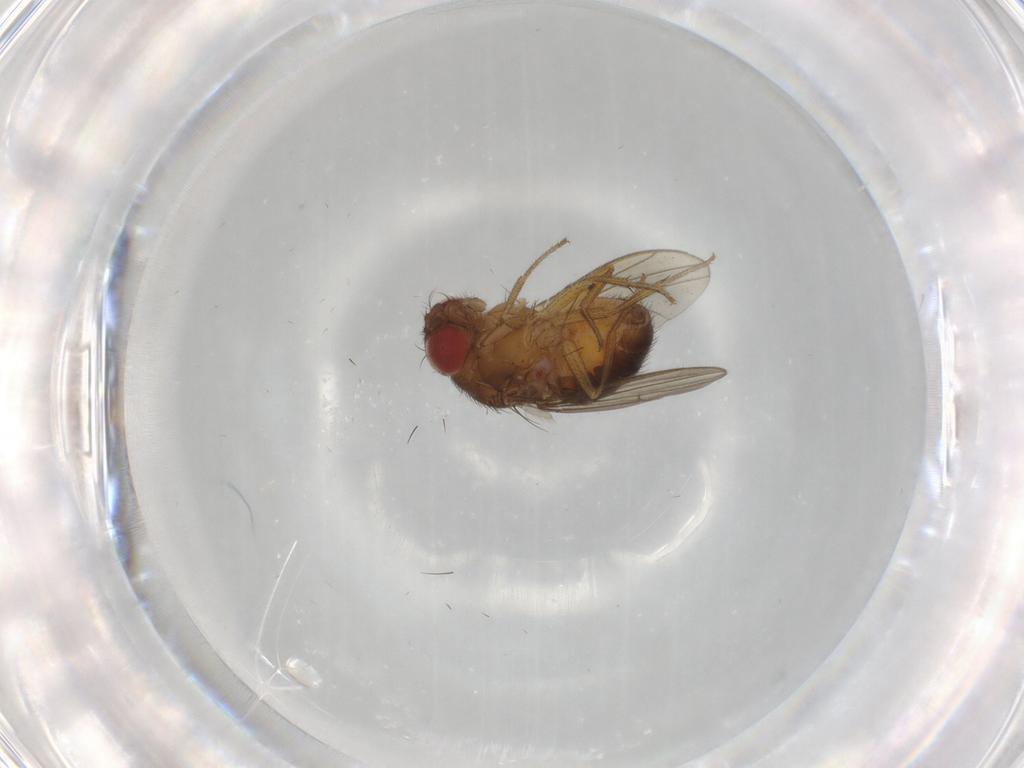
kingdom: Animalia
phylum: Arthropoda
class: Insecta
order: Diptera
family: Drosophilidae
